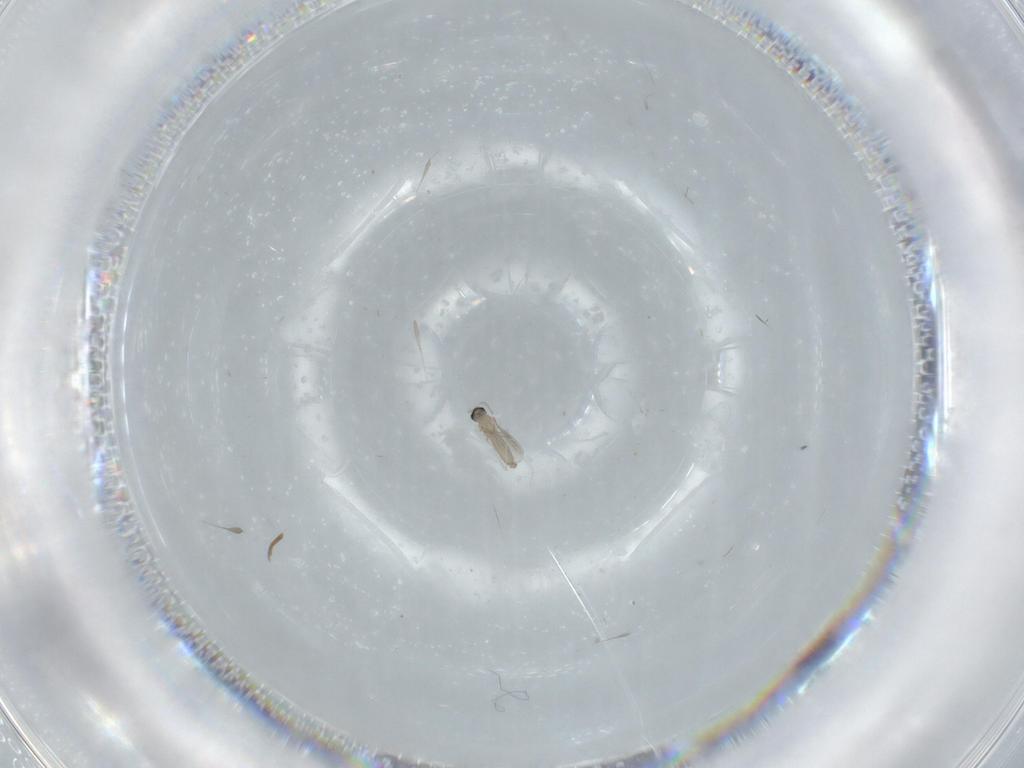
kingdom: Animalia
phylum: Arthropoda
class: Insecta
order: Diptera
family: Cecidomyiidae
